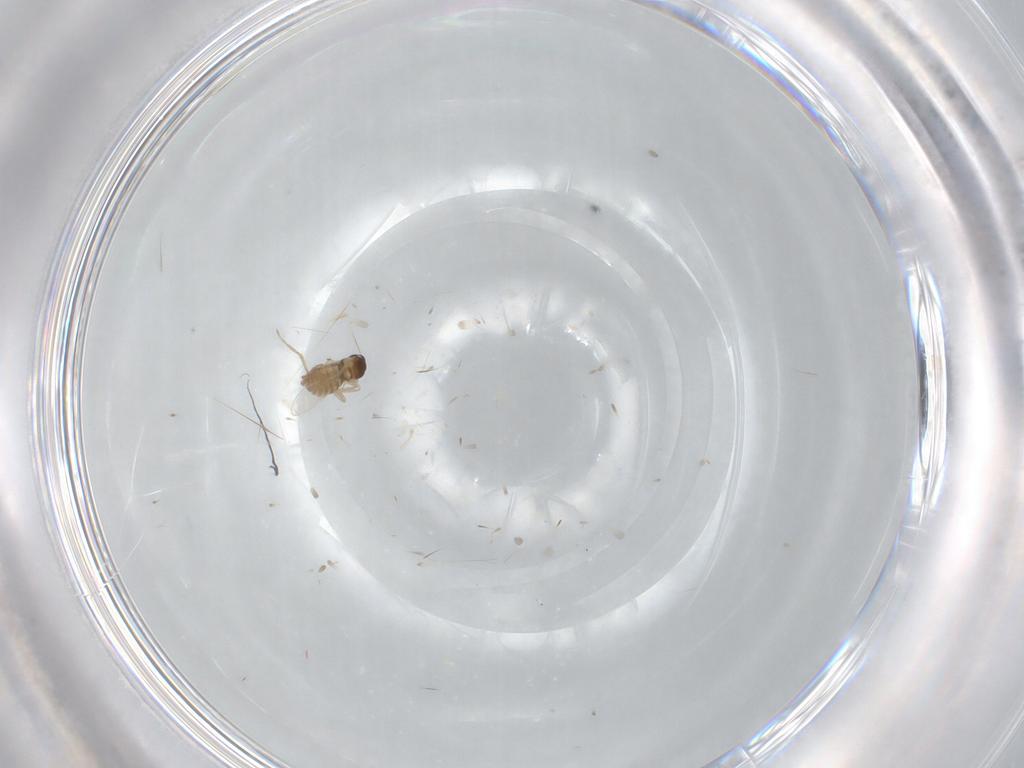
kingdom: Animalia
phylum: Arthropoda
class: Insecta
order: Diptera
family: Cecidomyiidae
